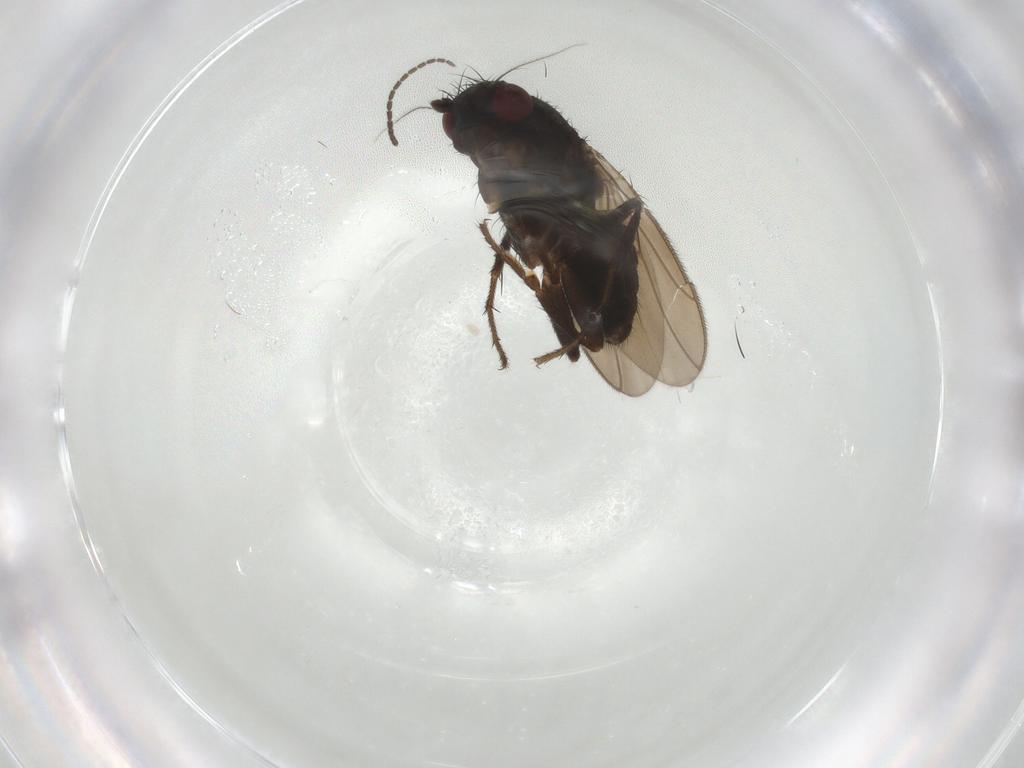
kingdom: Animalia
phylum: Arthropoda
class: Insecta
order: Diptera
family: Sphaeroceridae
